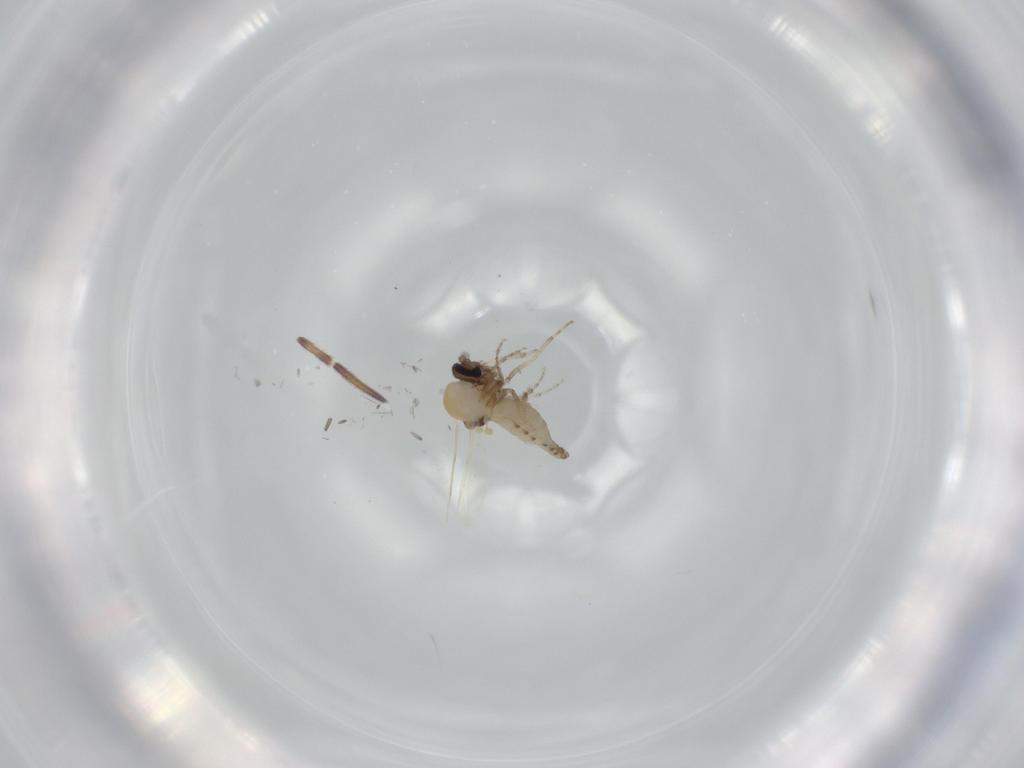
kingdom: Animalia
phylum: Arthropoda
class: Insecta
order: Diptera
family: Ceratopogonidae
